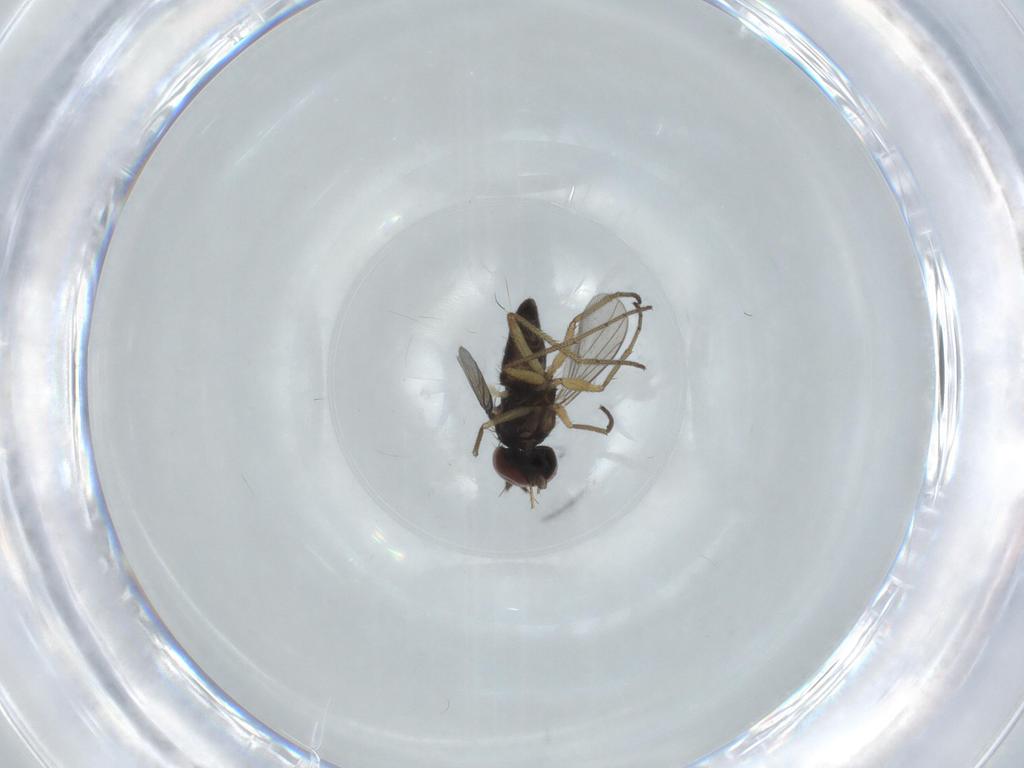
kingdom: Animalia
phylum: Arthropoda
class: Insecta
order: Diptera
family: Dolichopodidae
